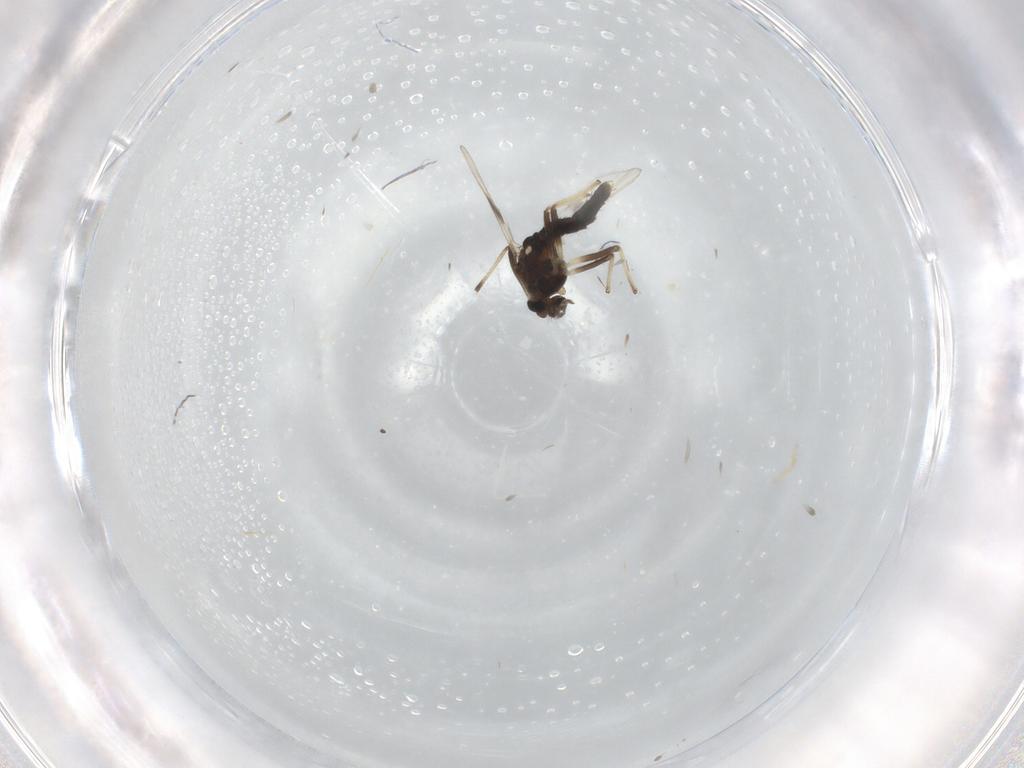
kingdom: Animalia
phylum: Arthropoda
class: Insecta
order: Diptera
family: Cecidomyiidae
